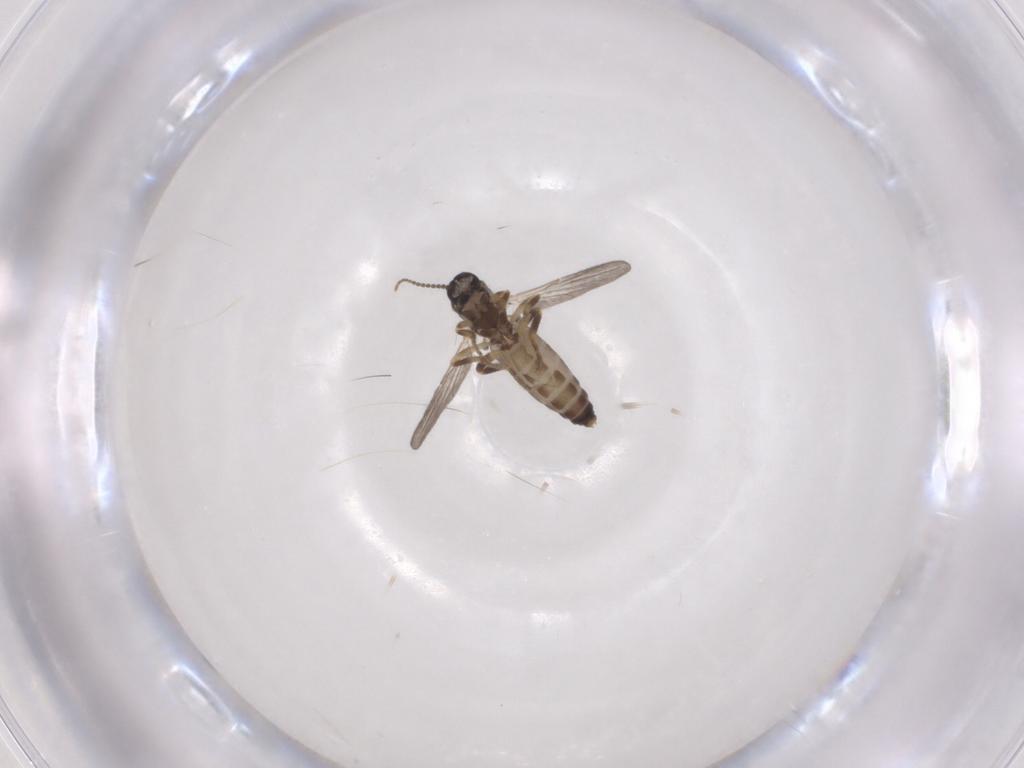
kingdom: Animalia
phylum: Arthropoda
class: Insecta
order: Diptera
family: Ceratopogonidae
